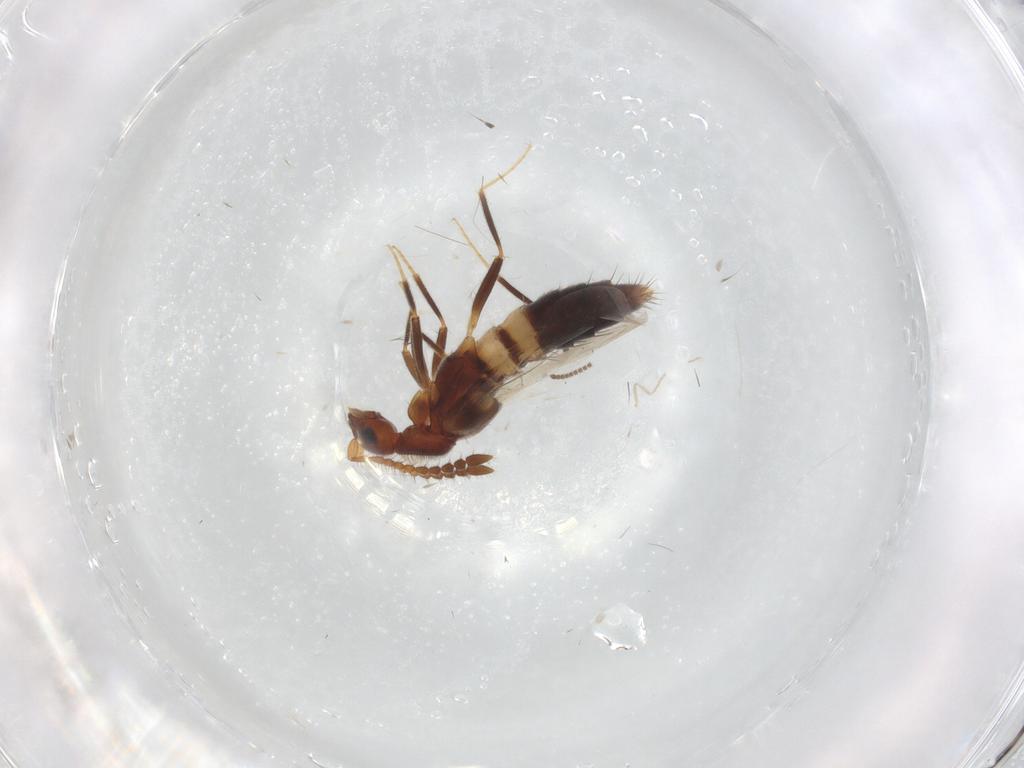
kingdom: Animalia
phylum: Arthropoda
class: Insecta
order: Coleoptera
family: Staphylinidae
